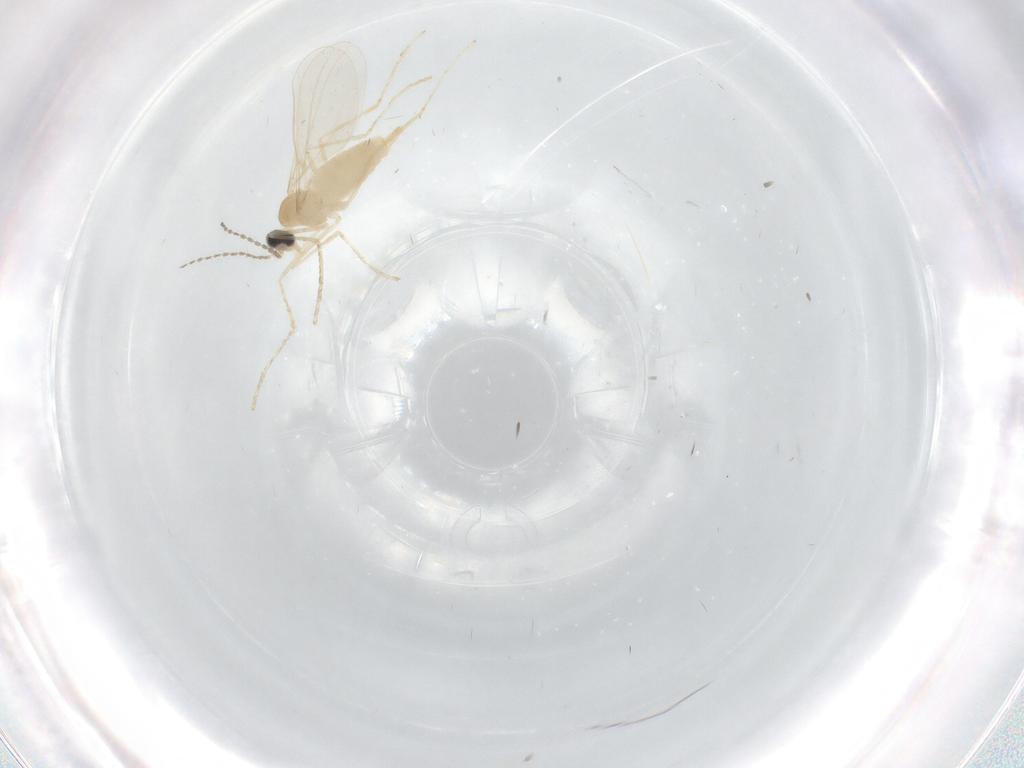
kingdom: Animalia
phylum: Arthropoda
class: Insecta
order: Diptera
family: Cecidomyiidae
